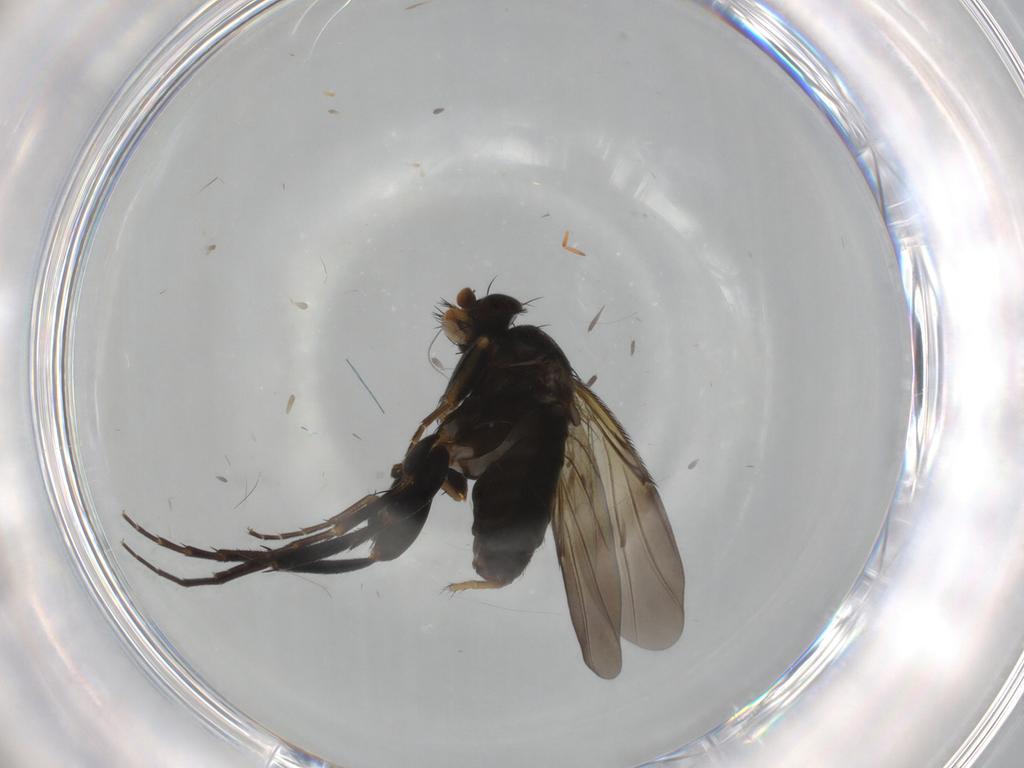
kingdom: Animalia
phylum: Arthropoda
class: Insecta
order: Diptera
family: Phoridae
